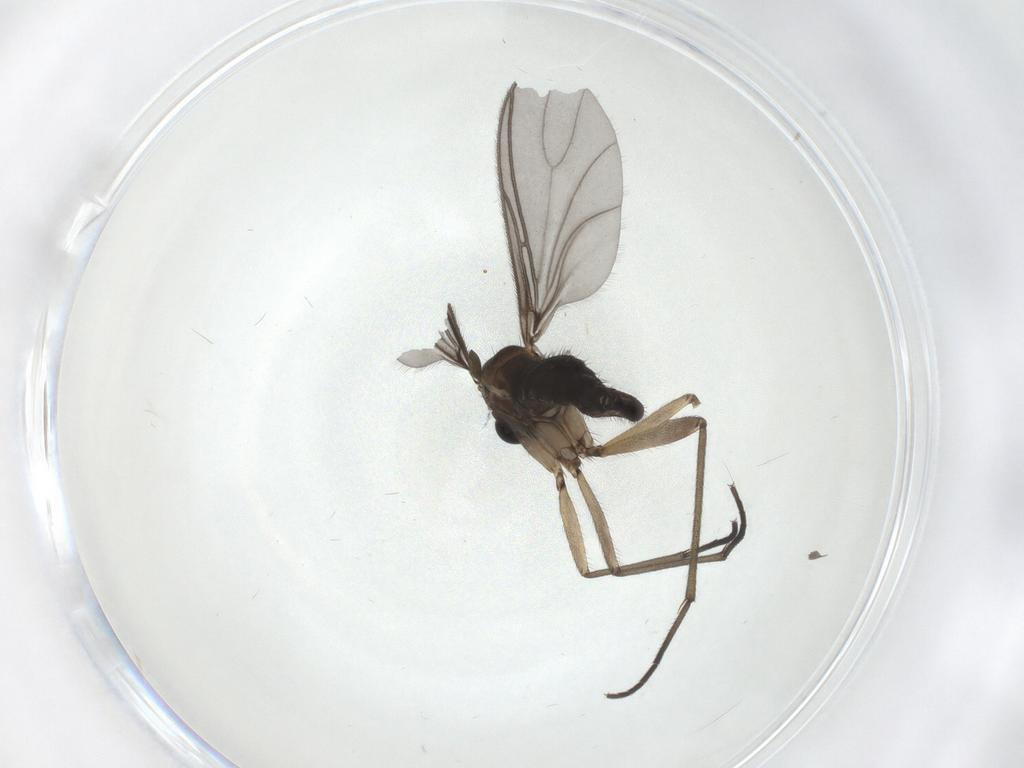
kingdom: Animalia
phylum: Arthropoda
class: Insecta
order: Diptera
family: Sciaridae
